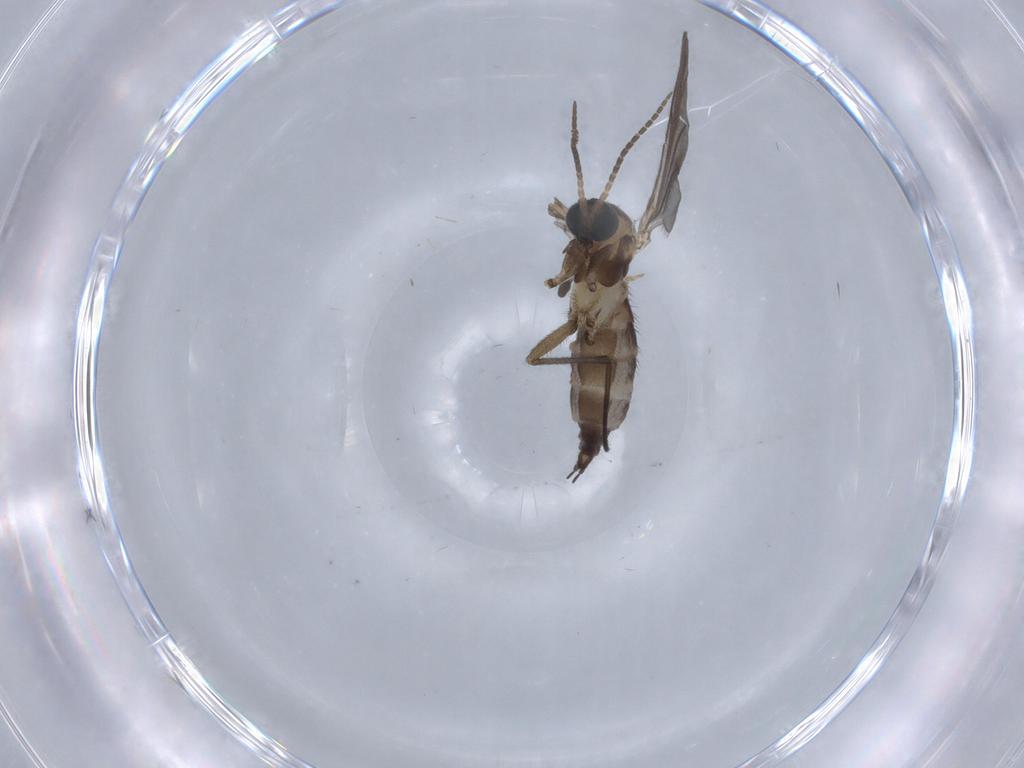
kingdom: Animalia
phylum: Arthropoda
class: Insecta
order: Diptera
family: Sciaridae
